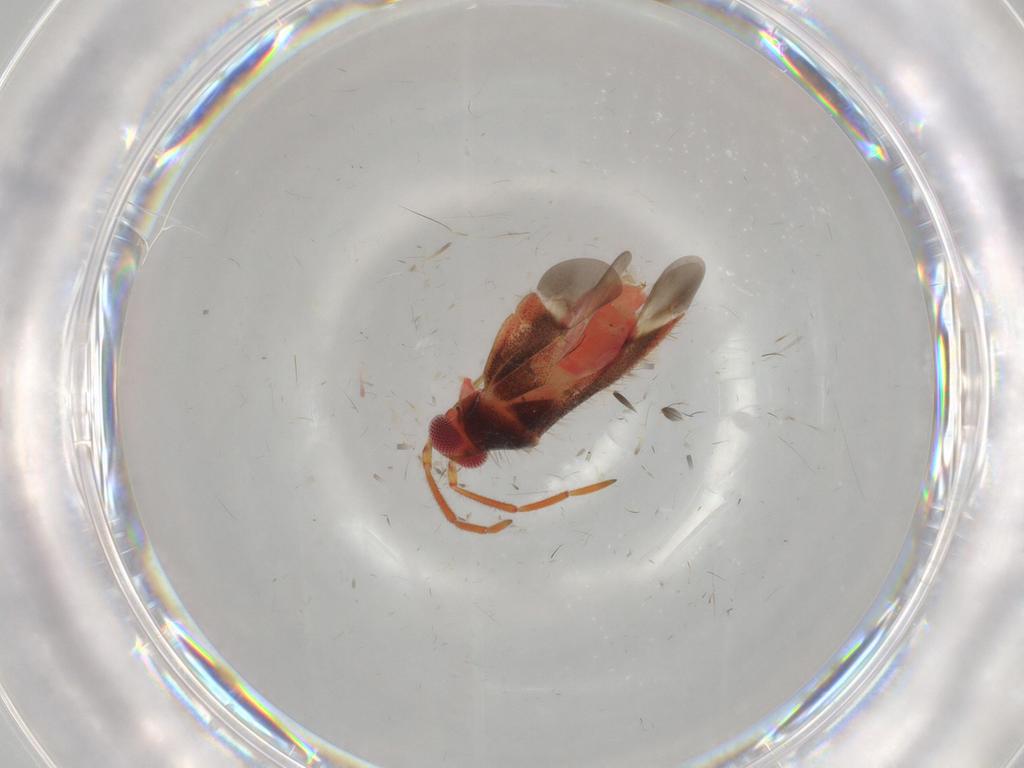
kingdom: Animalia
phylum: Arthropoda
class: Insecta
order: Hemiptera
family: Miridae
